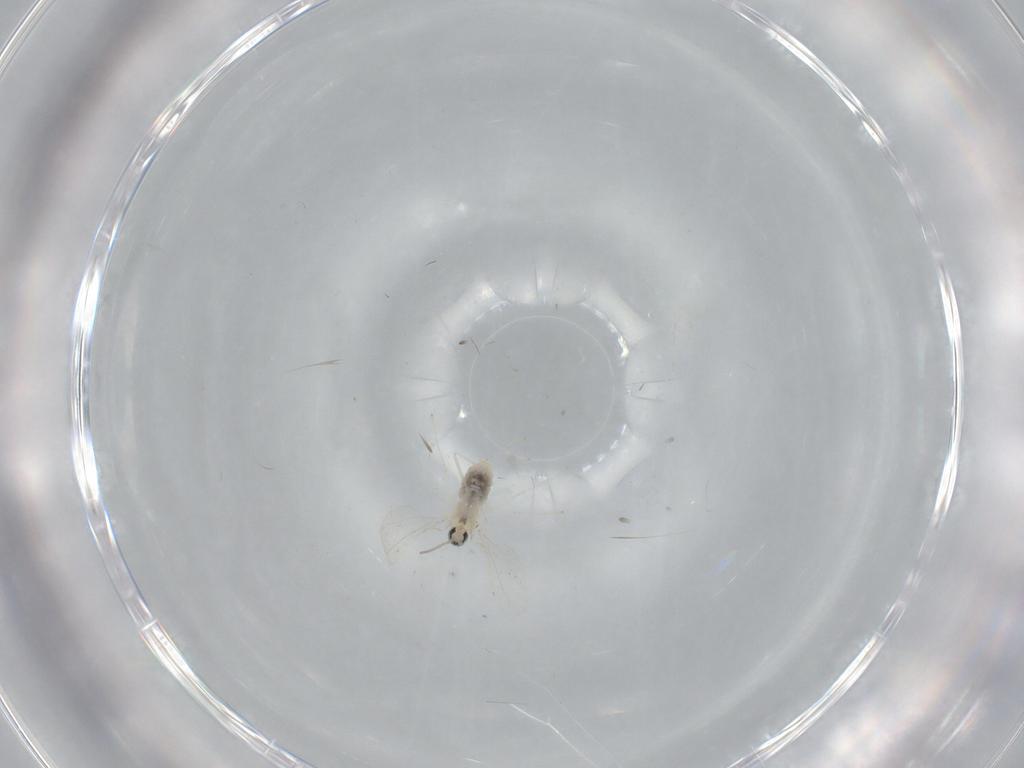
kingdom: Animalia
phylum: Arthropoda
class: Insecta
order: Diptera
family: Cecidomyiidae
